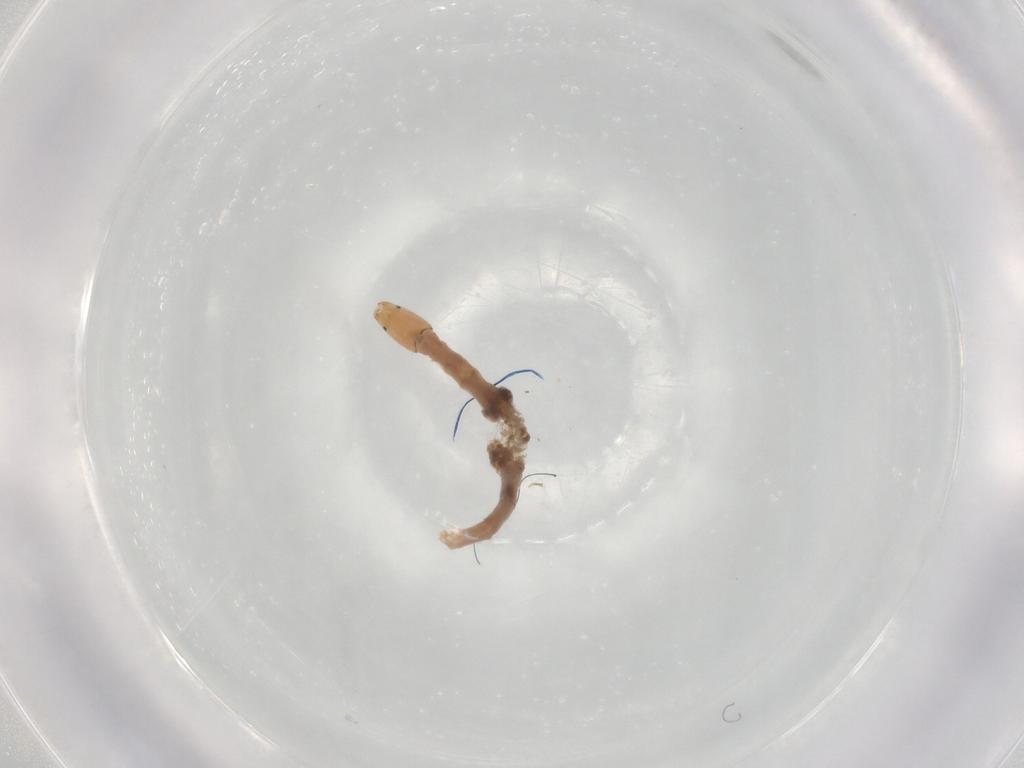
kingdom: Animalia
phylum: Arthropoda
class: Insecta
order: Diptera
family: Chironomidae
